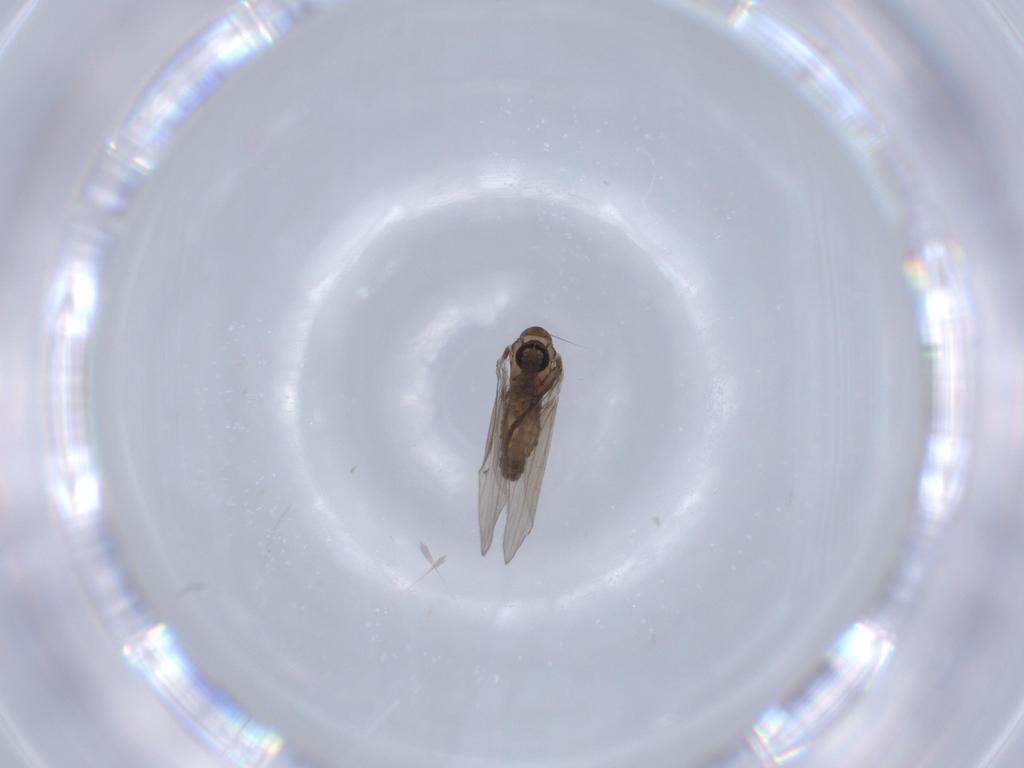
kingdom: Animalia
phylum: Arthropoda
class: Insecta
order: Diptera
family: Psychodidae
